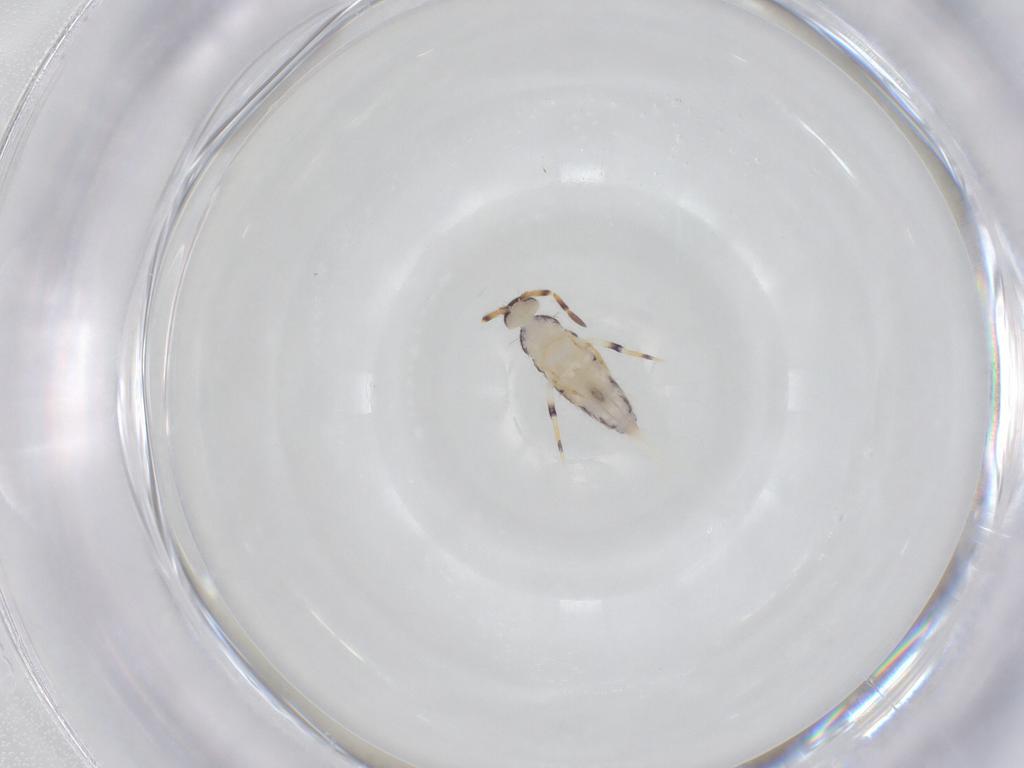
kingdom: Animalia
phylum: Arthropoda
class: Collembola
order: Entomobryomorpha
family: Isotomidae
